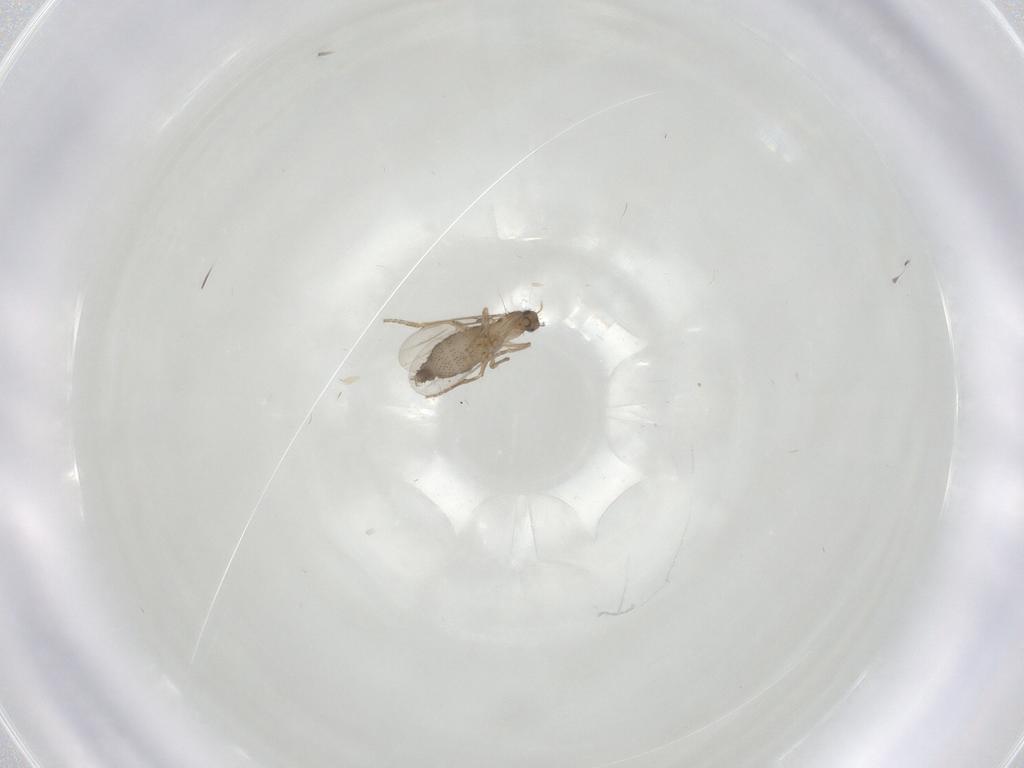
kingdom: Animalia
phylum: Arthropoda
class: Insecta
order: Diptera
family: Phoridae
